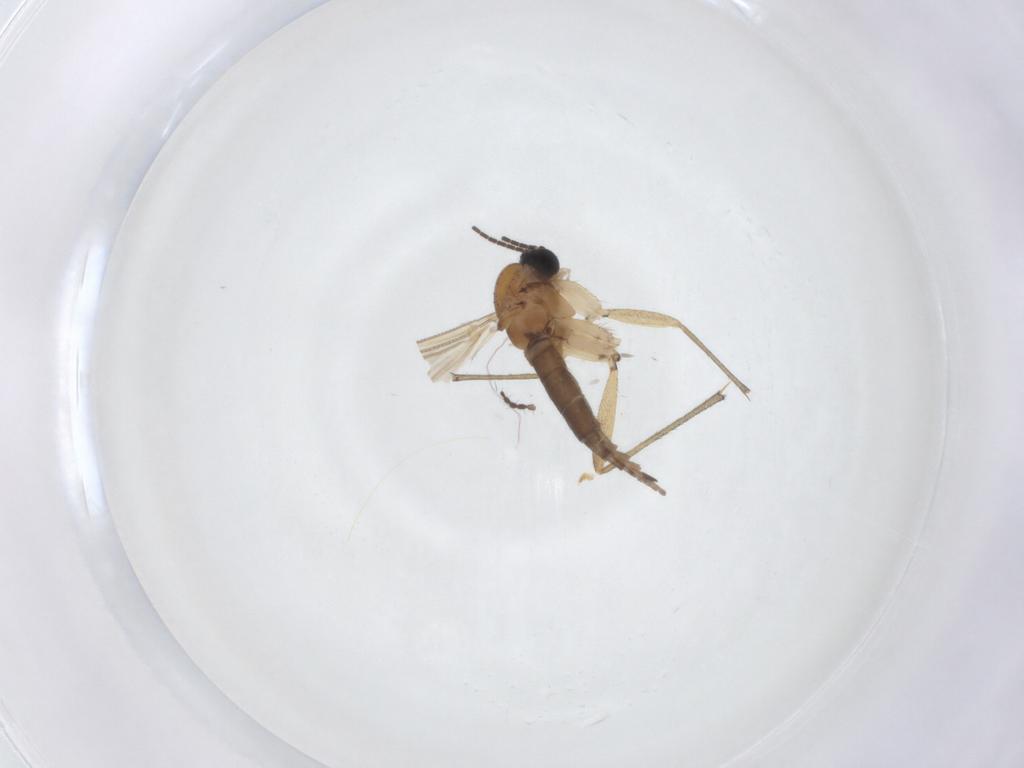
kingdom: Animalia
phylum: Arthropoda
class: Insecta
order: Diptera
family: Limoniidae
